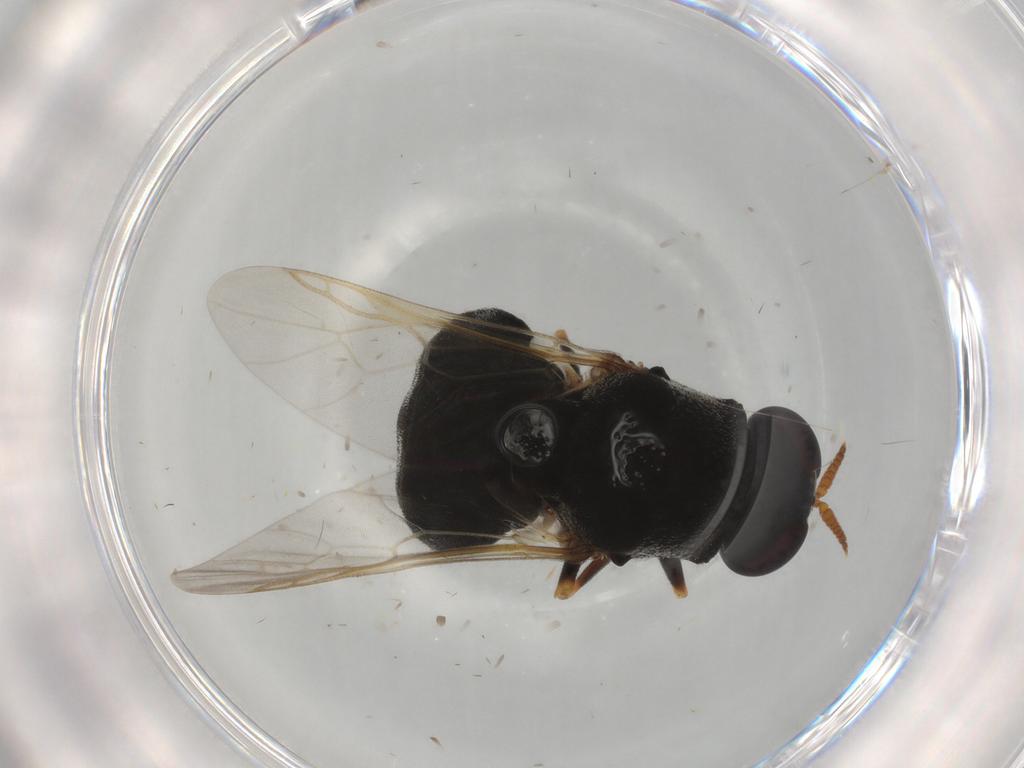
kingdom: Animalia
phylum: Arthropoda
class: Insecta
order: Diptera
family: Stratiomyidae
